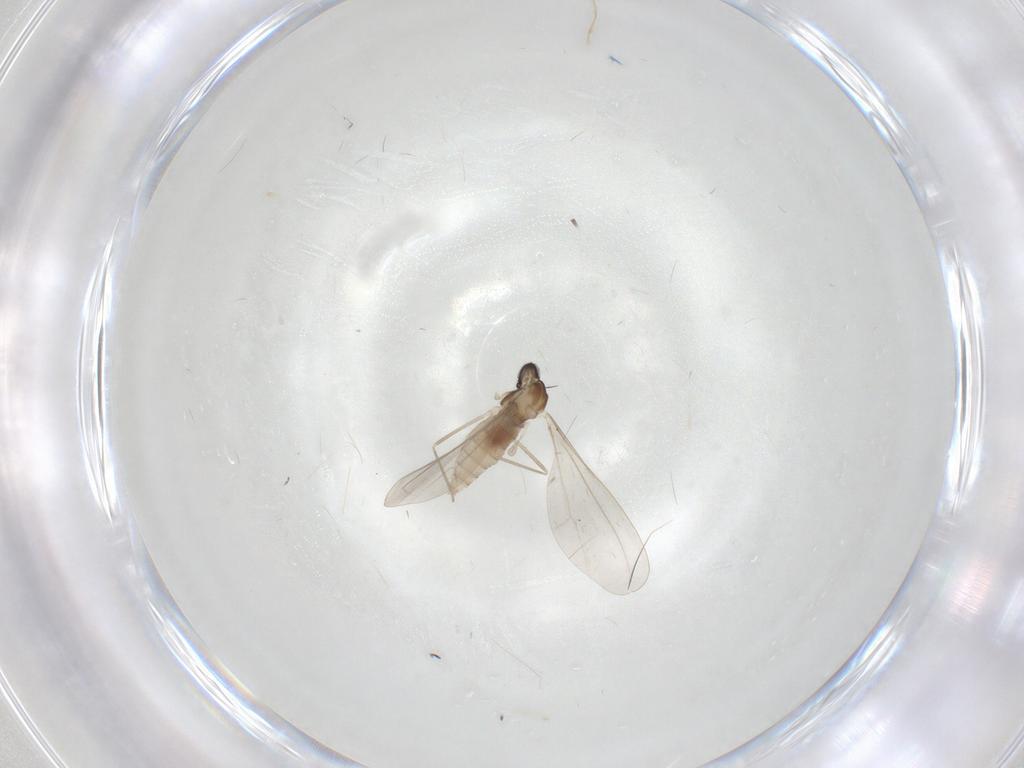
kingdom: Animalia
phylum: Arthropoda
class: Insecta
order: Diptera
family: Cecidomyiidae
